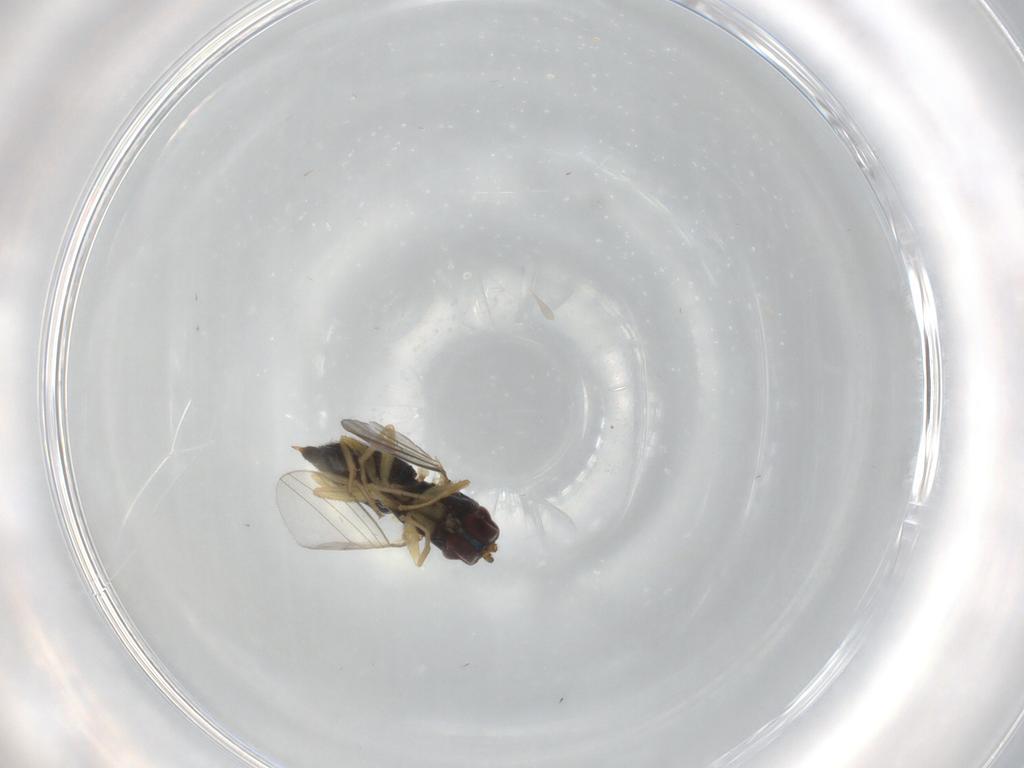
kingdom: Animalia
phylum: Arthropoda
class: Insecta
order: Diptera
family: Dolichopodidae
